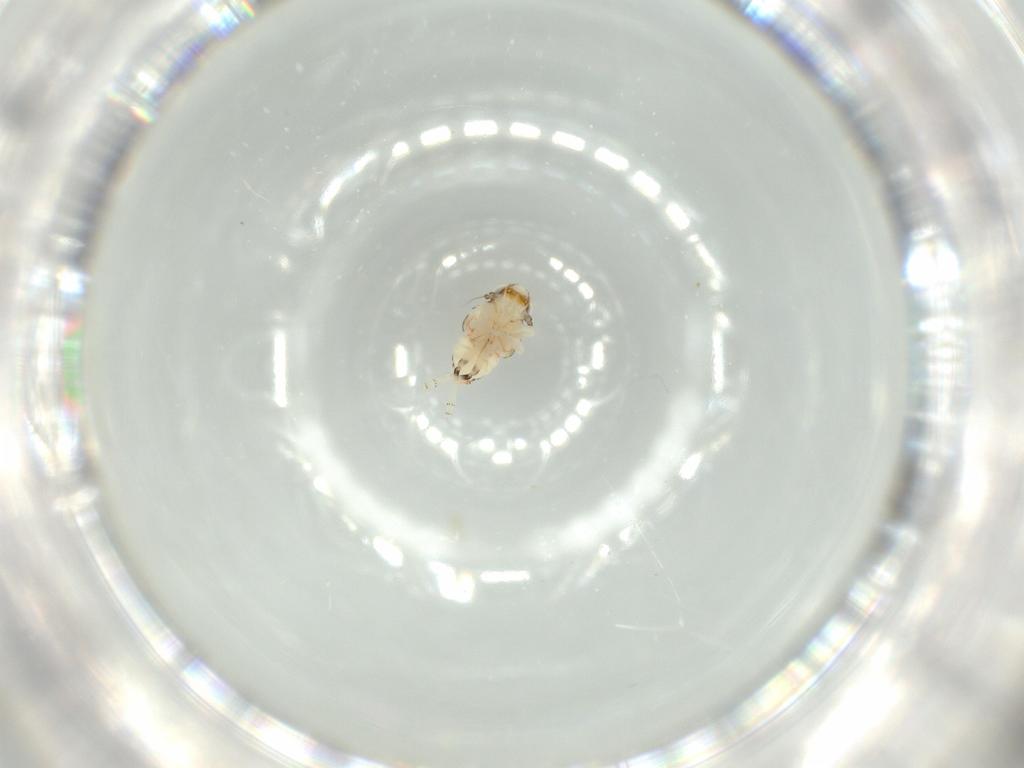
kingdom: Animalia
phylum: Arthropoda
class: Insecta
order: Hemiptera
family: Nogodinidae
